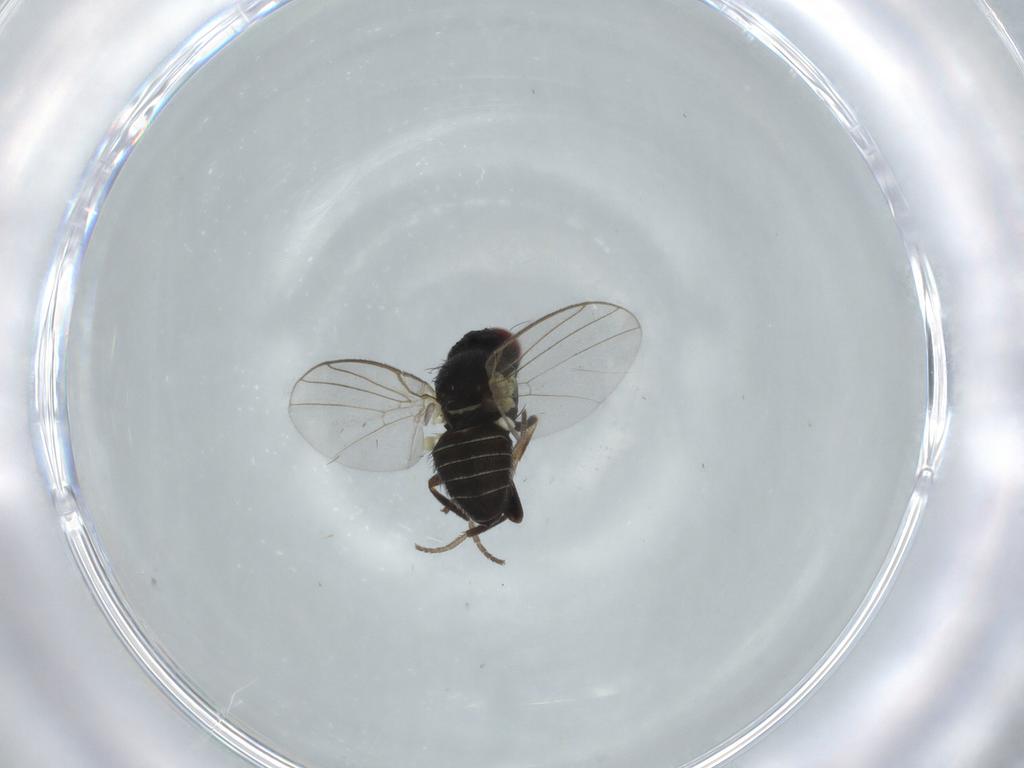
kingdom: Animalia
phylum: Arthropoda
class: Insecta
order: Diptera
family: Agromyzidae
